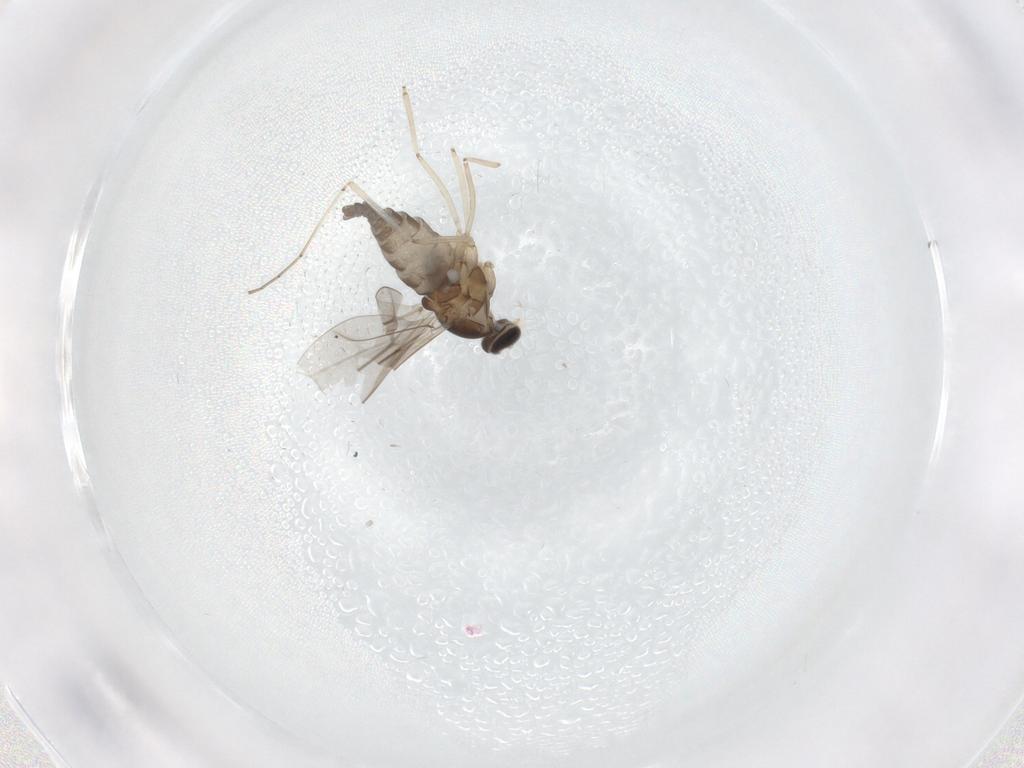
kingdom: Animalia
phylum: Arthropoda
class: Insecta
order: Diptera
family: Cecidomyiidae
